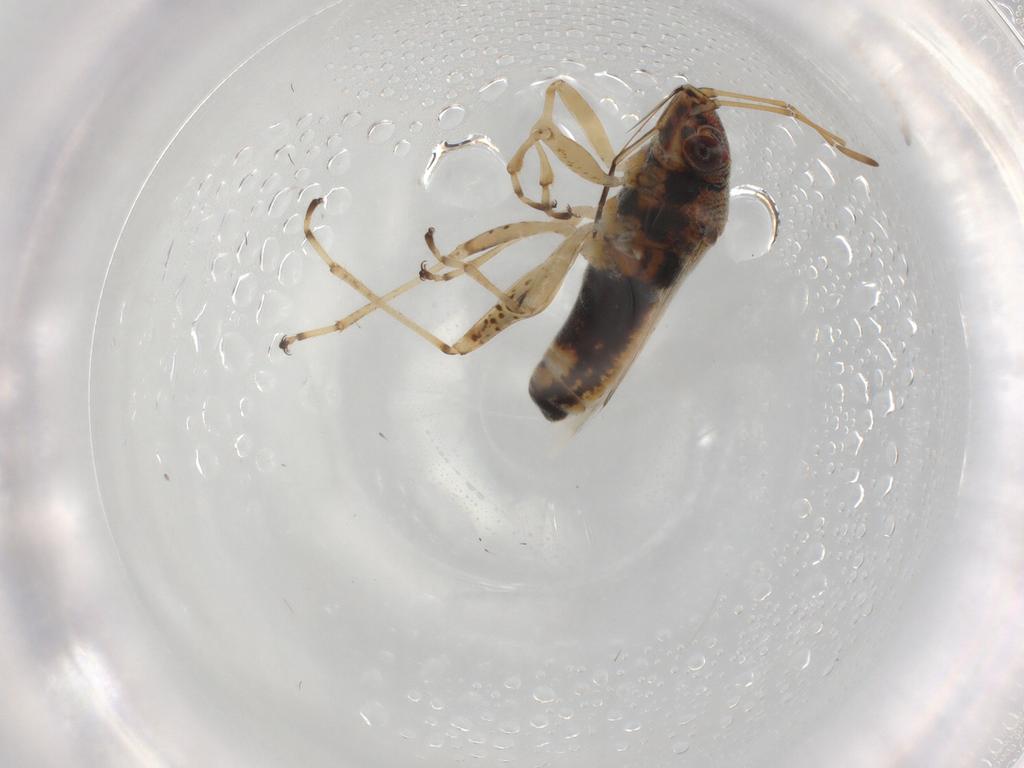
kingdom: Animalia
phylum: Arthropoda
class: Insecta
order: Hemiptera
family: Lygaeidae
